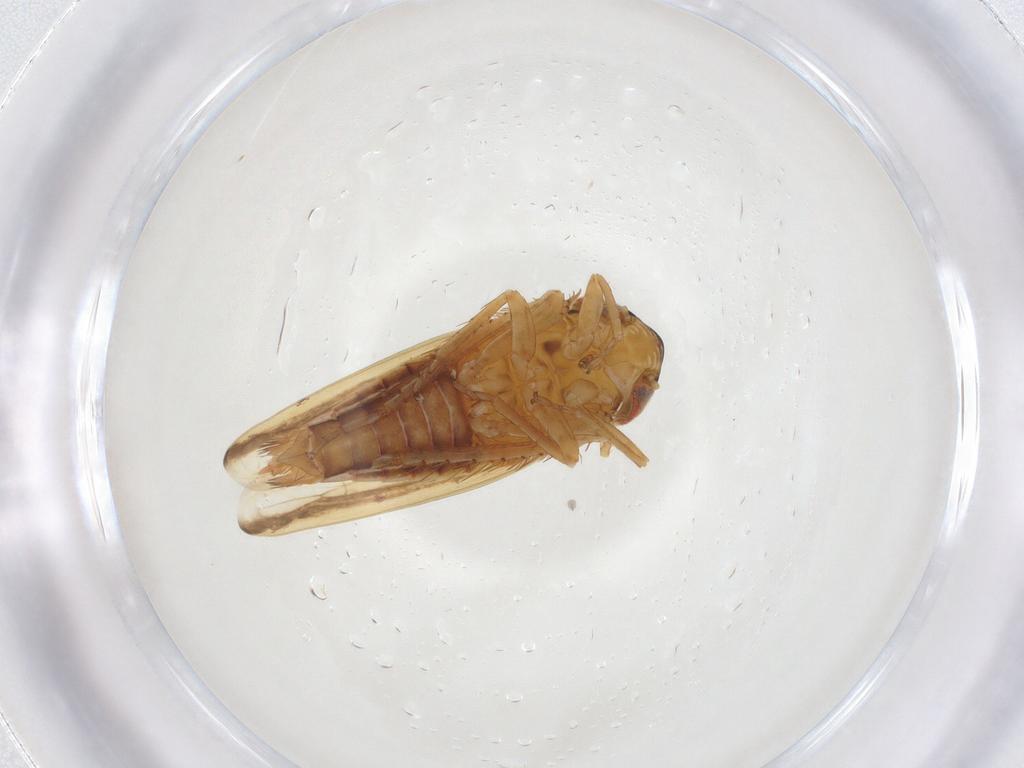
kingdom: Animalia
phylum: Arthropoda
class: Insecta
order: Hemiptera
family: Cicadellidae
